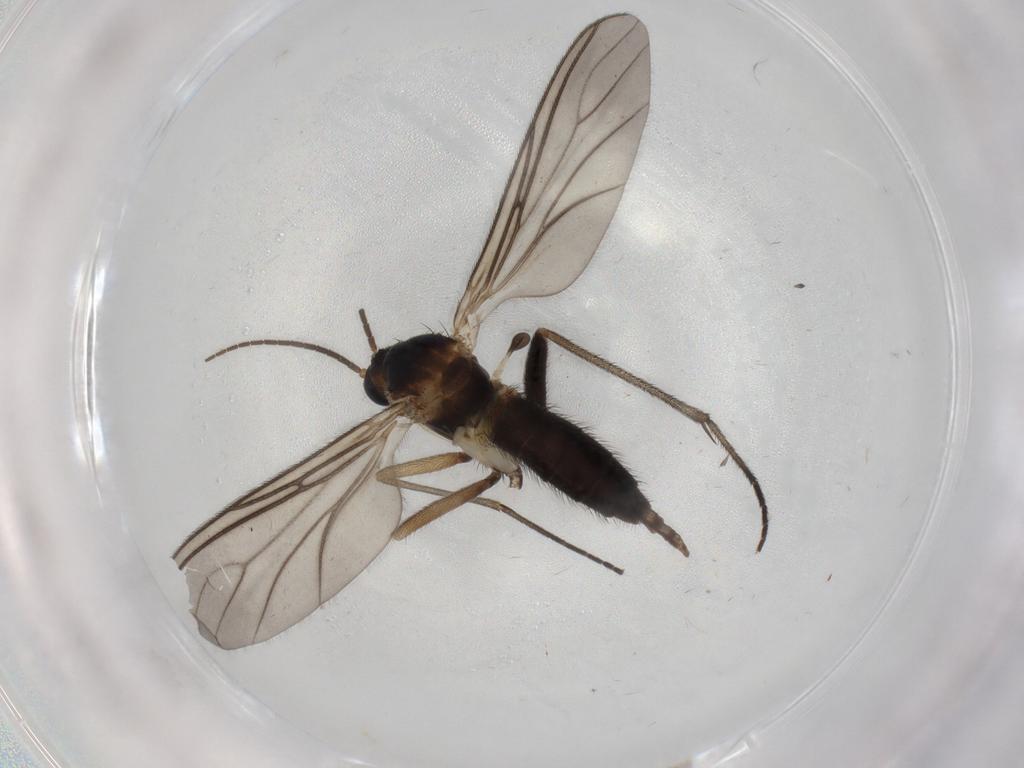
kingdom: Animalia
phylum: Arthropoda
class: Insecta
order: Diptera
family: Sciaridae
